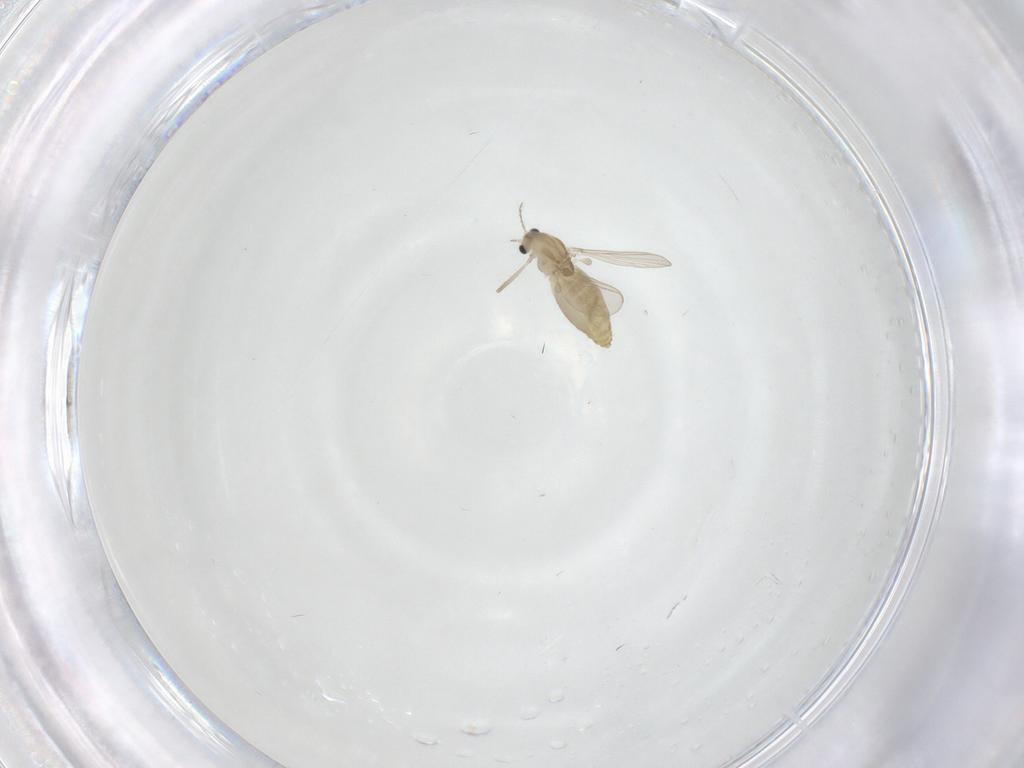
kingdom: Animalia
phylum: Arthropoda
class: Insecta
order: Diptera
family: Chironomidae
